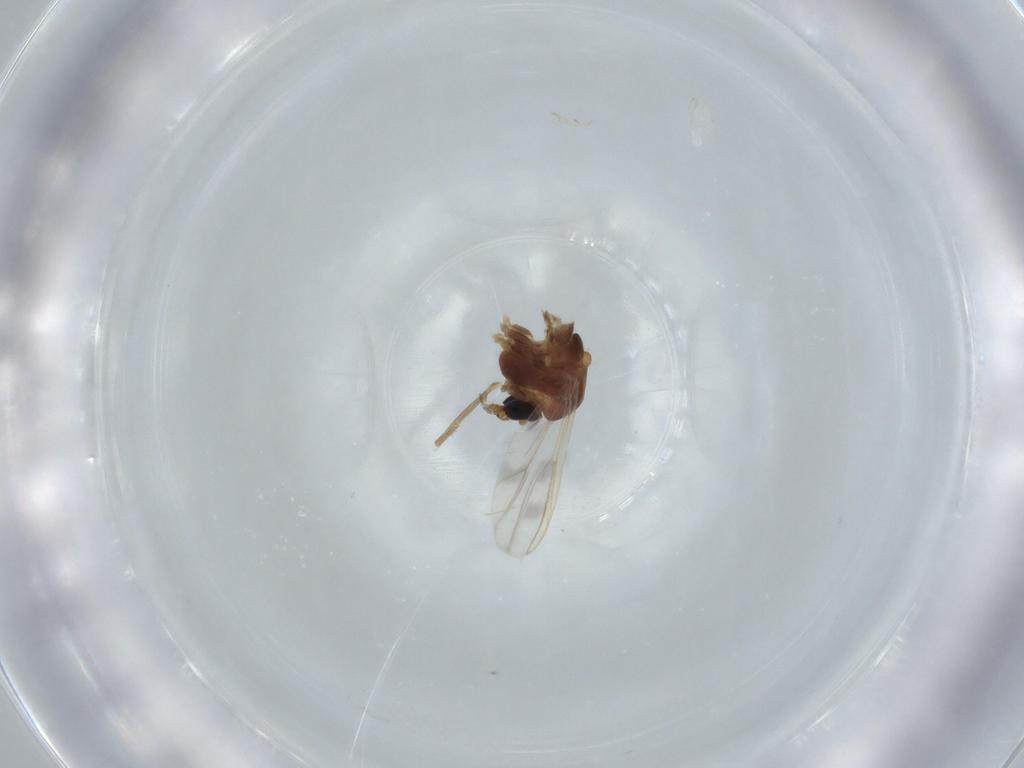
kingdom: Animalia
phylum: Arthropoda
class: Insecta
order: Diptera
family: Chironomidae
